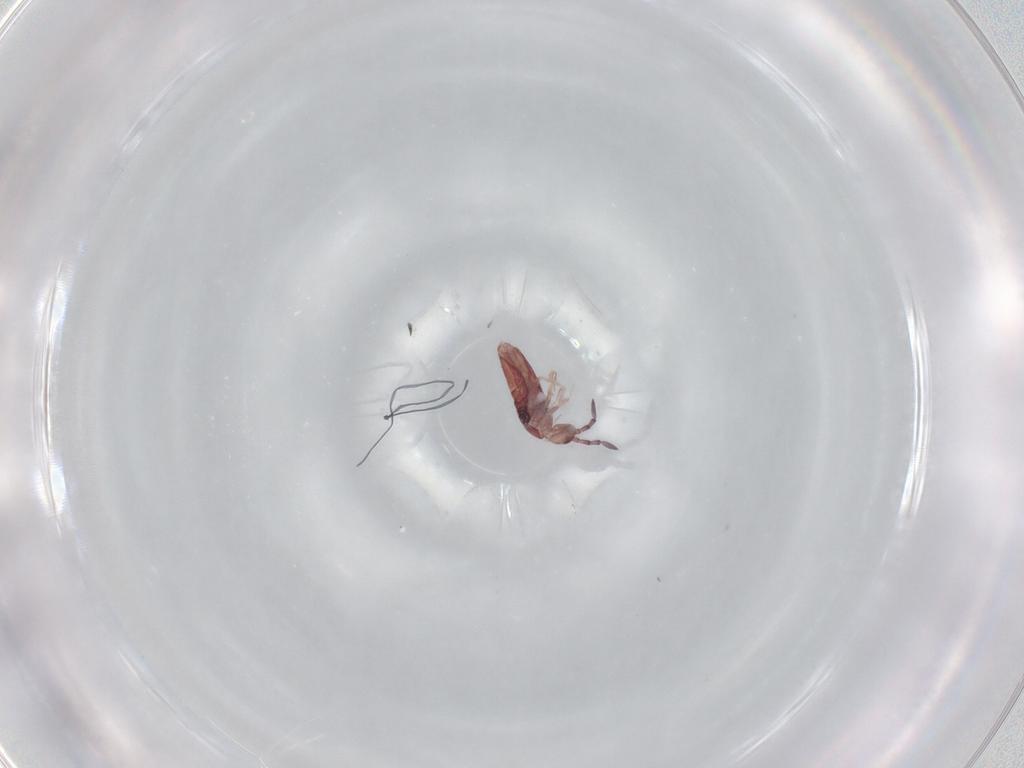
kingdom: Animalia
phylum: Arthropoda
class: Collembola
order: Entomobryomorpha
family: Entomobryidae
